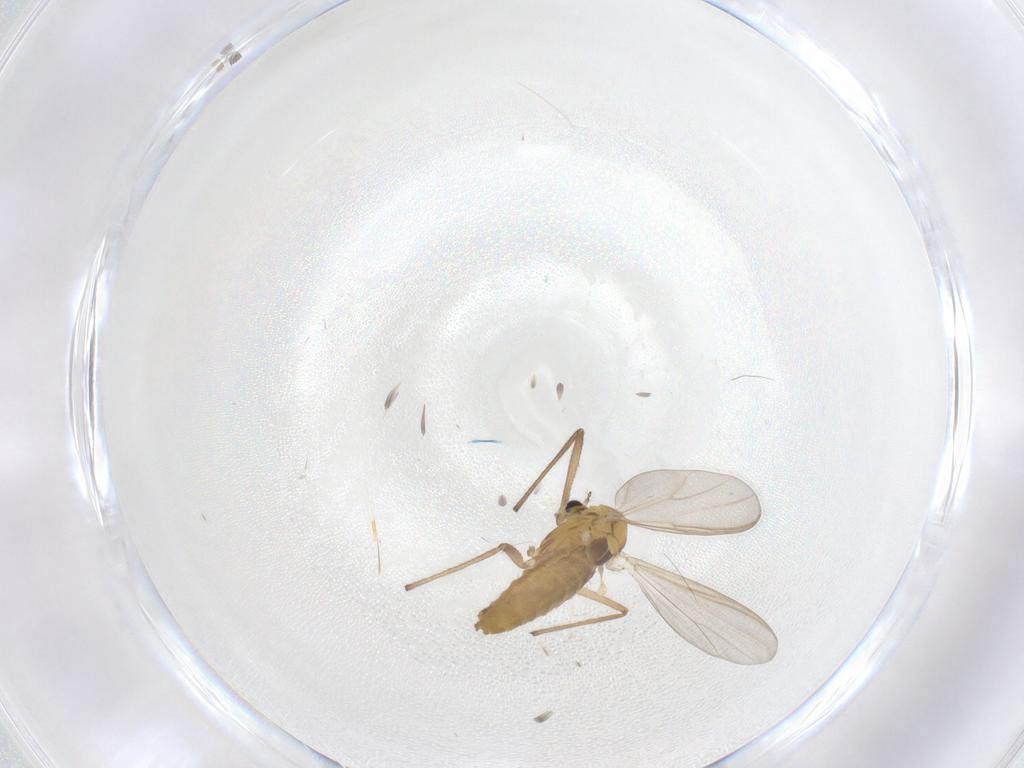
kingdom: Animalia
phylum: Arthropoda
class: Insecta
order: Diptera
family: Chironomidae
